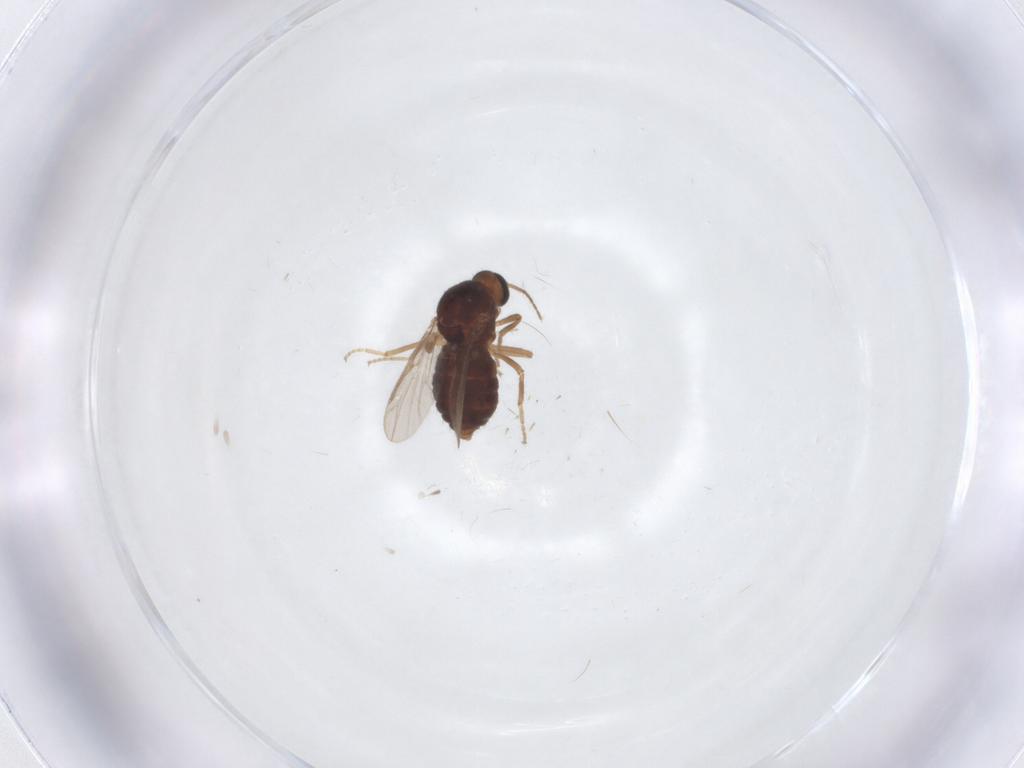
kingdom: Animalia
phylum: Arthropoda
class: Insecta
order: Diptera
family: Ceratopogonidae
